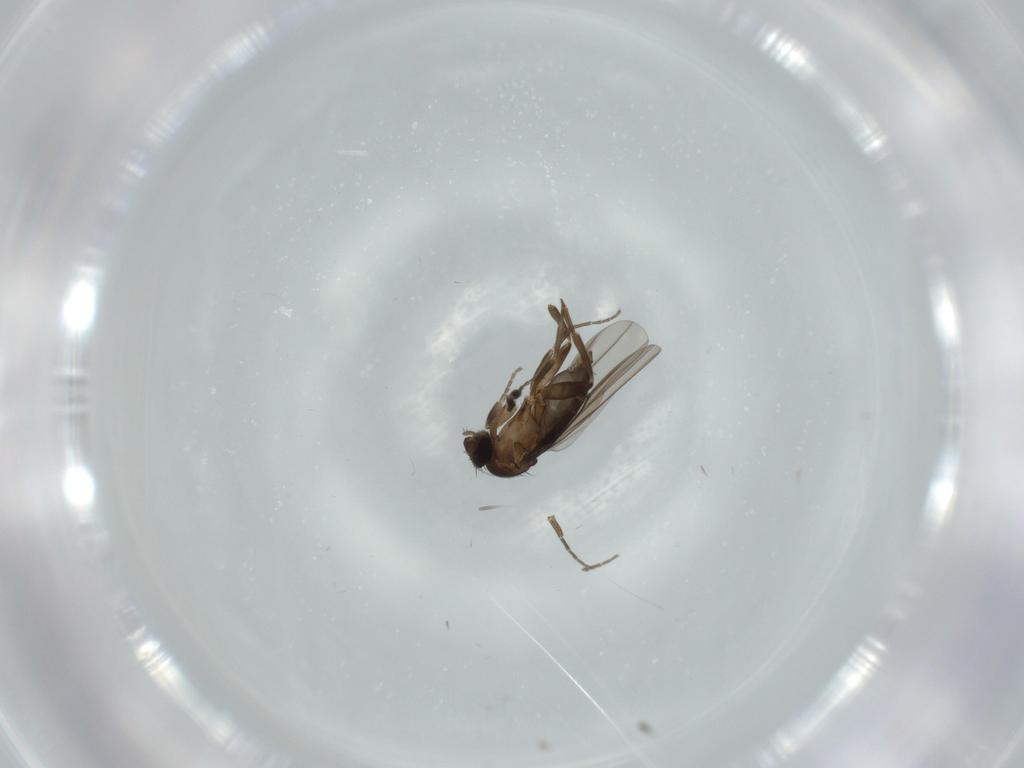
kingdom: Animalia
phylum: Arthropoda
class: Insecta
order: Diptera
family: Phoridae
